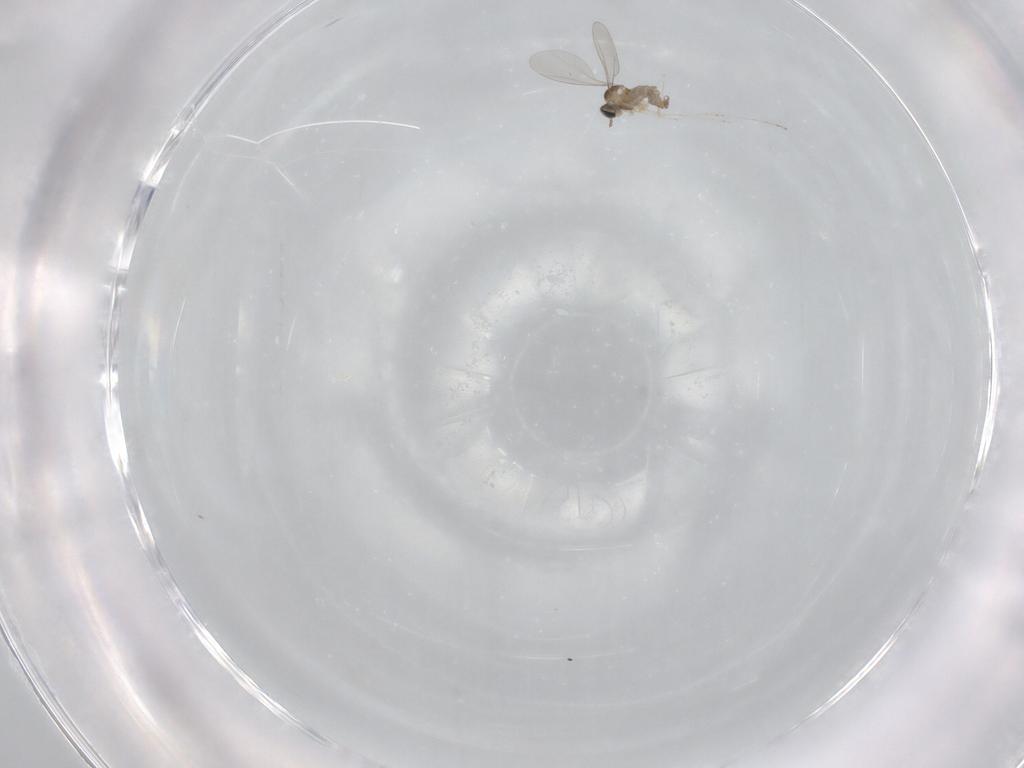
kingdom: Animalia
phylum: Arthropoda
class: Insecta
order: Diptera
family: Cecidomyiidae
